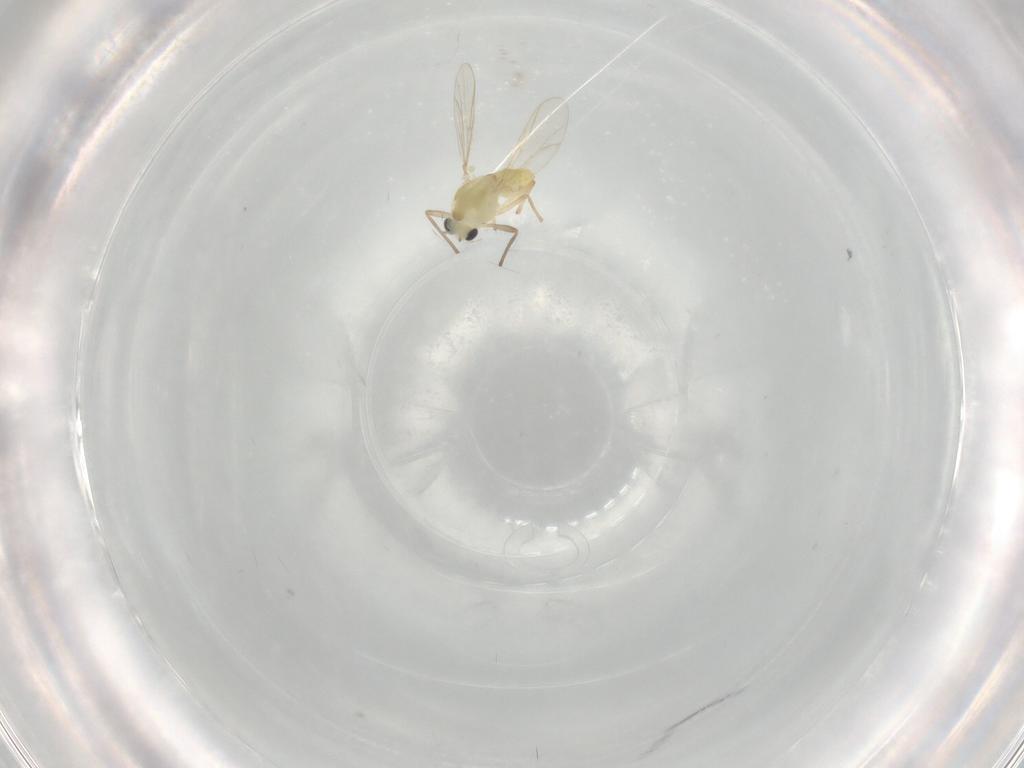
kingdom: Animalia
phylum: Arthropoda
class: Insecta
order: Diptera
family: Chironomidae
